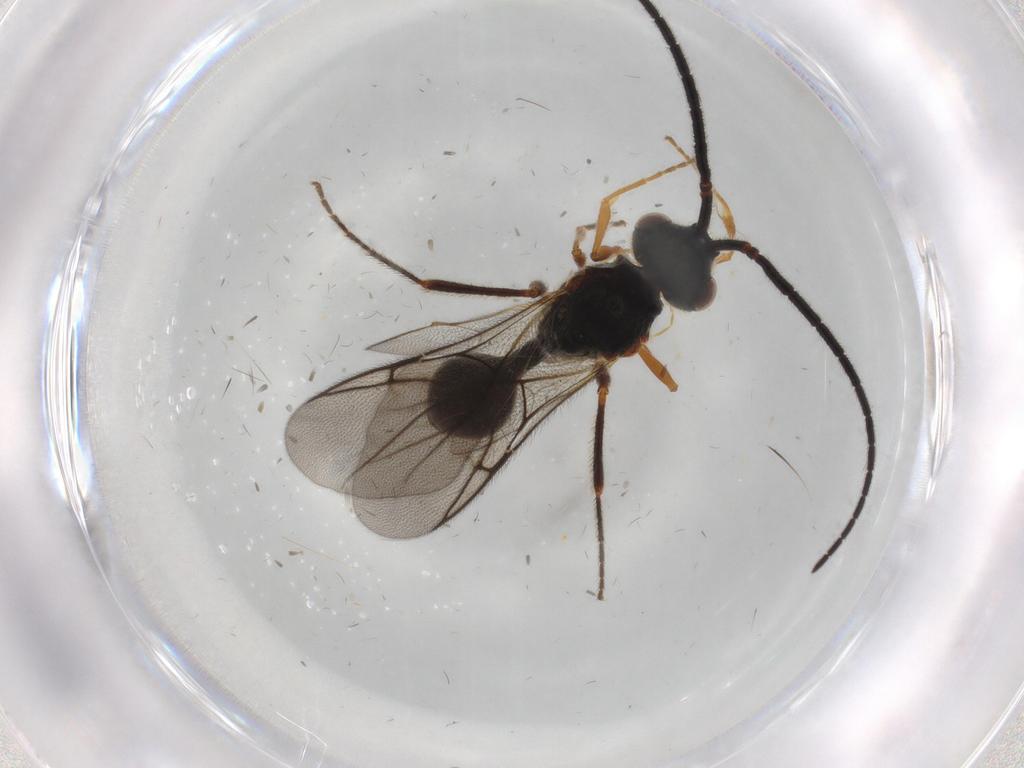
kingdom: Animalia
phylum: Arthropoda
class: Insecta
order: Hymenoptera
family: Diapriidae
